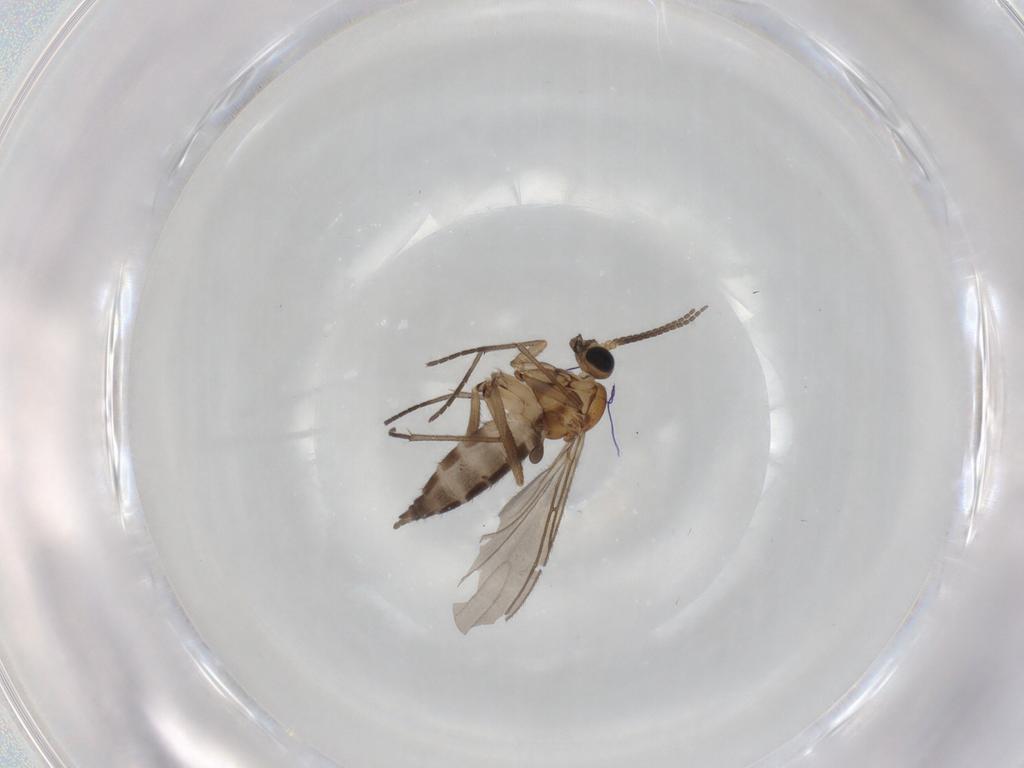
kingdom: Animalia
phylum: Arthropoda
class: Insecta
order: Diptera
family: Sciaridae
